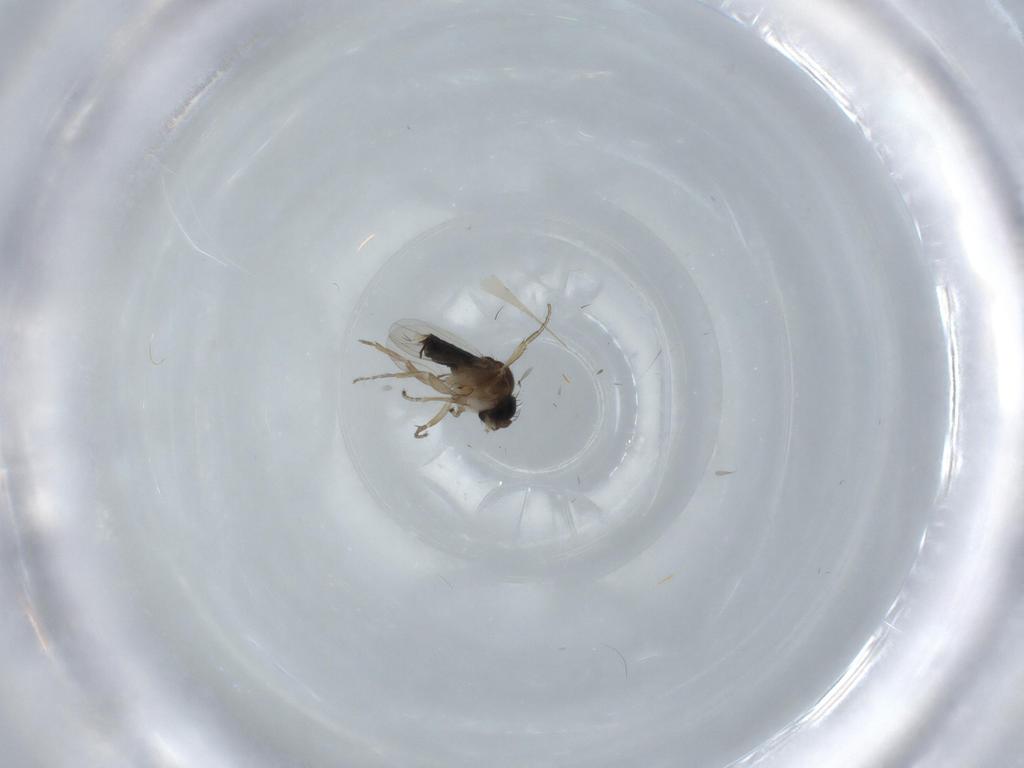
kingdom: Animalia
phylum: Arthropoda
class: Insecta
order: Diptera
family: Phoridae
